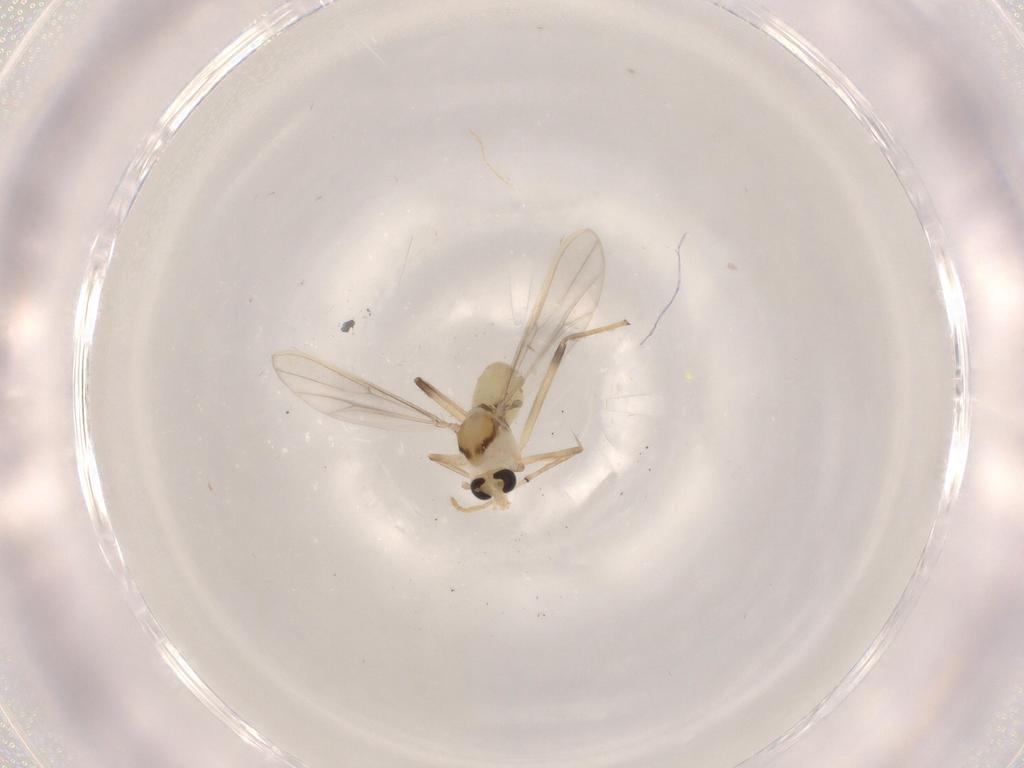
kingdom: Animalia
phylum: Arthropoda
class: Insecta
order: Diptera
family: Chironomidae
